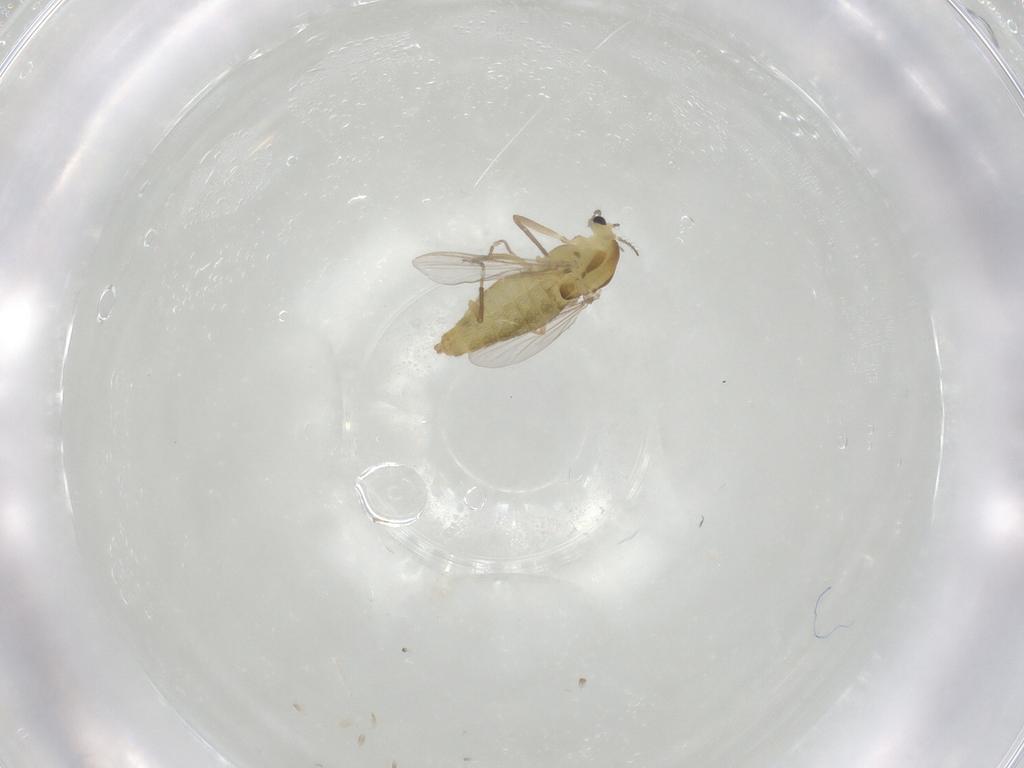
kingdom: Animalia
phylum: Arthropoda
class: Insecta
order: Diptera
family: Chironomidae
